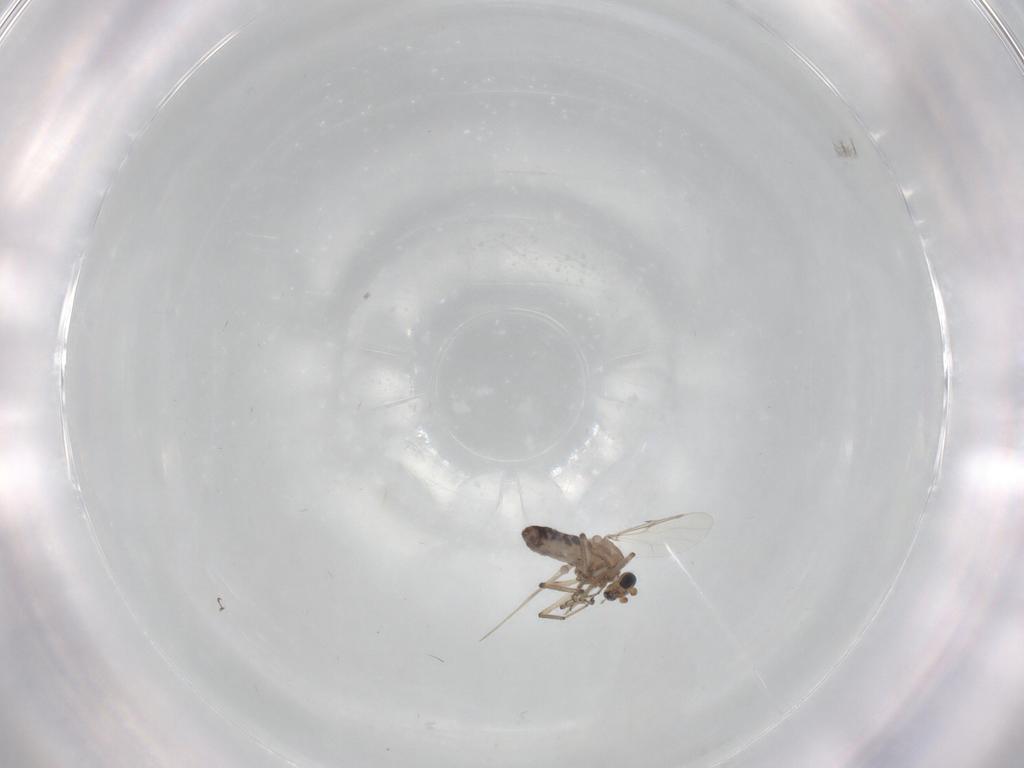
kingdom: Animalia
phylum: Arthropoda
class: Insecta
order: Diptera
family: Ceratopogonidae
